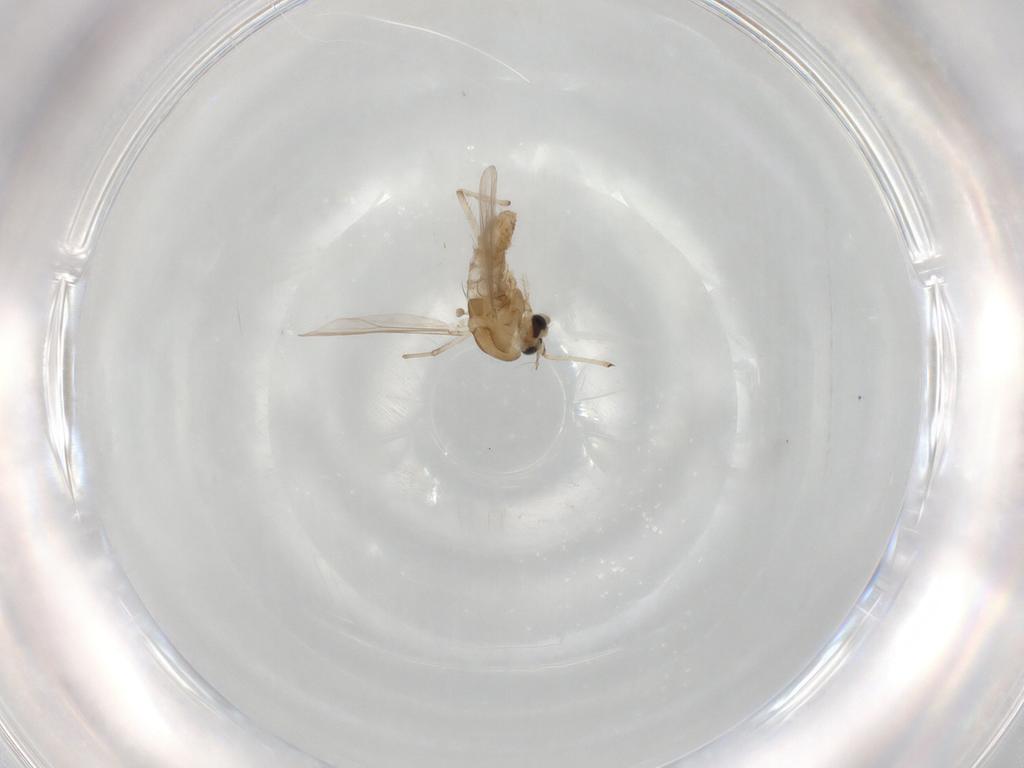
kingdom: Animalia
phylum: Arthropoda
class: Insecta
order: Diptera
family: Chironomidae
